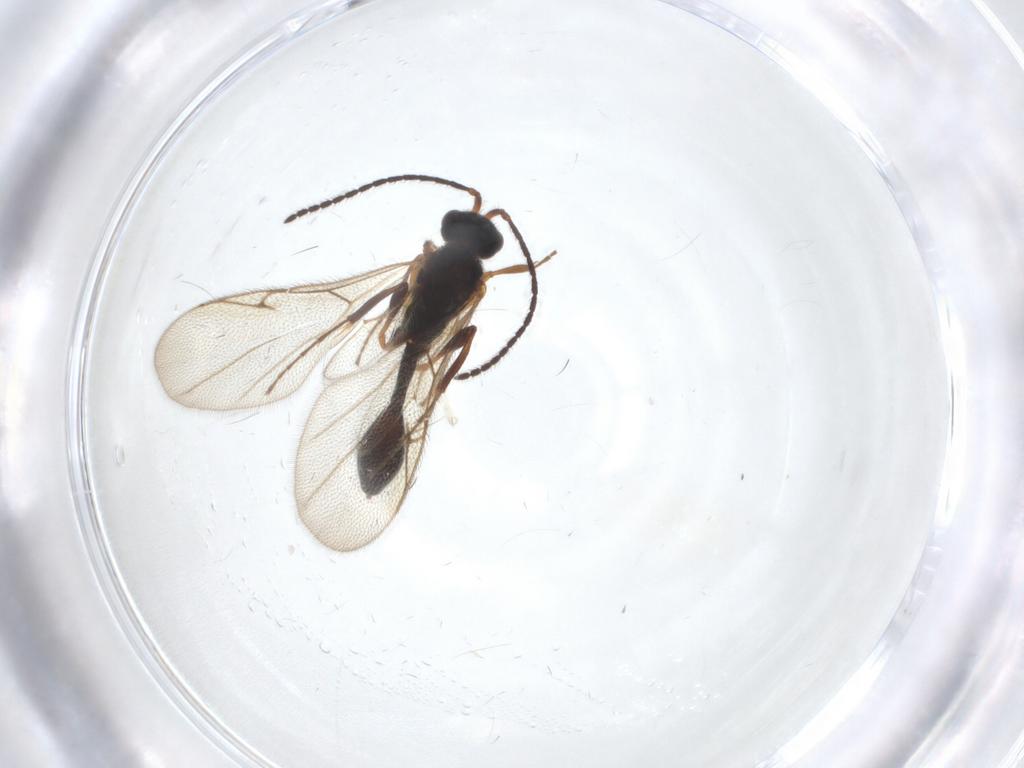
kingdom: Animalia
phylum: Arthropoda
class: Insecta
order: Hymenoptera
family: Diapriidae
